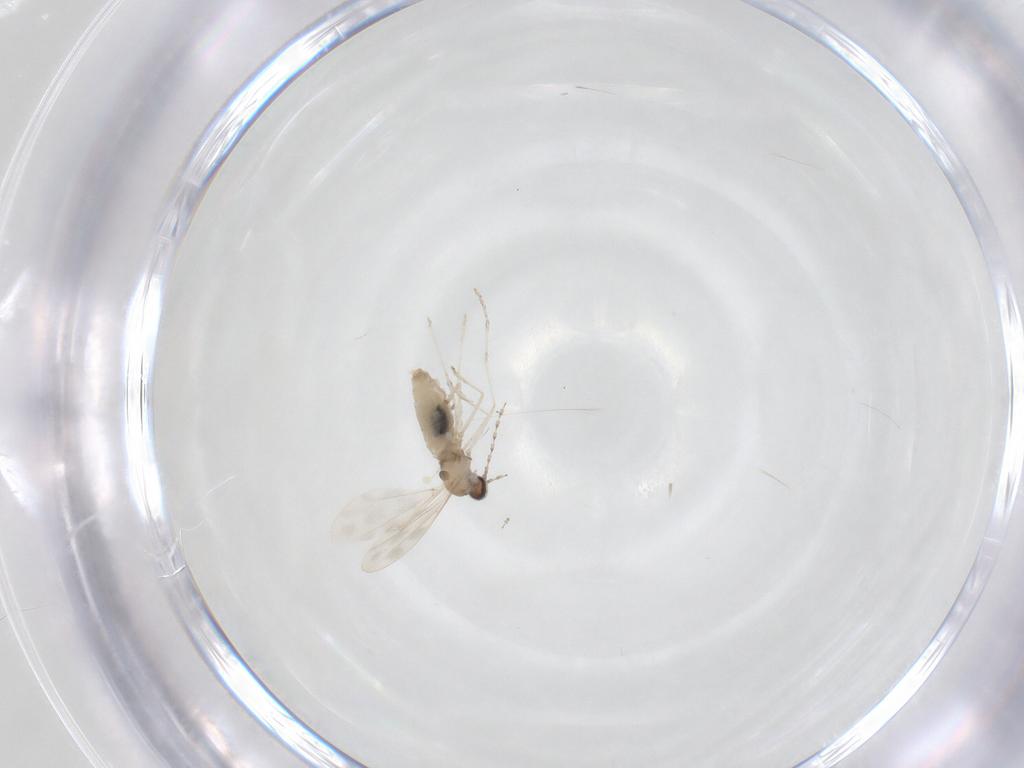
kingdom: Animalia
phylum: Arthropoda
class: Insecta
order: Diptera
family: Cecidomyiidae
